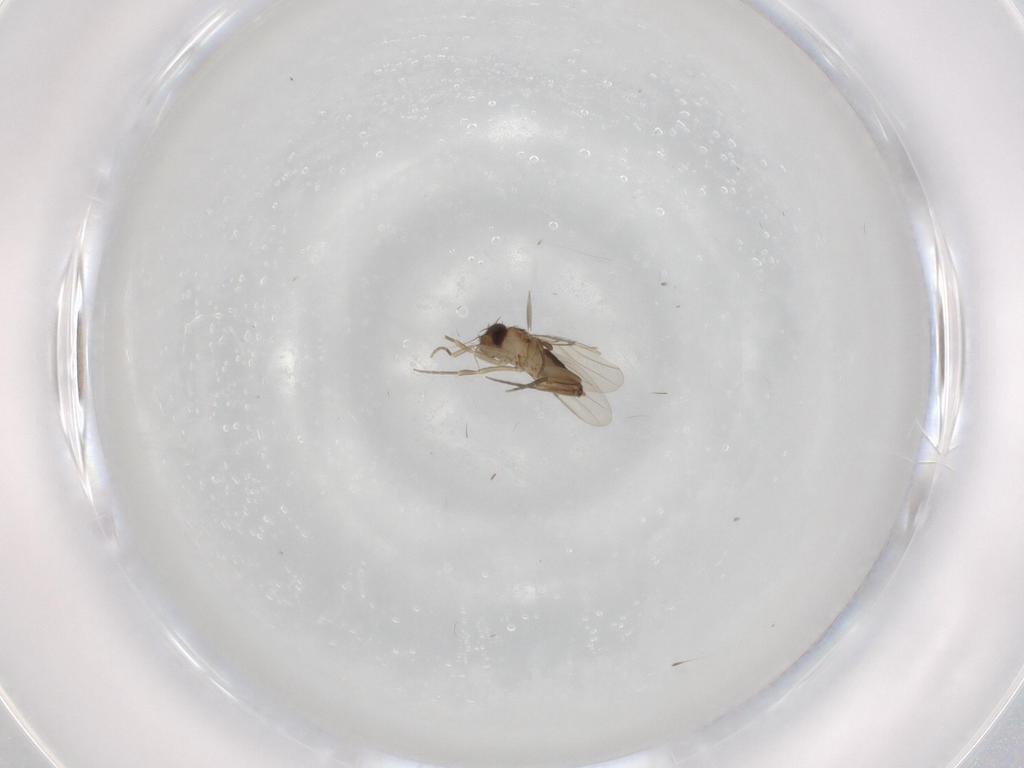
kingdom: Animalia
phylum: Arthropoda
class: Insecta
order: Diptera
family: Phoridae
